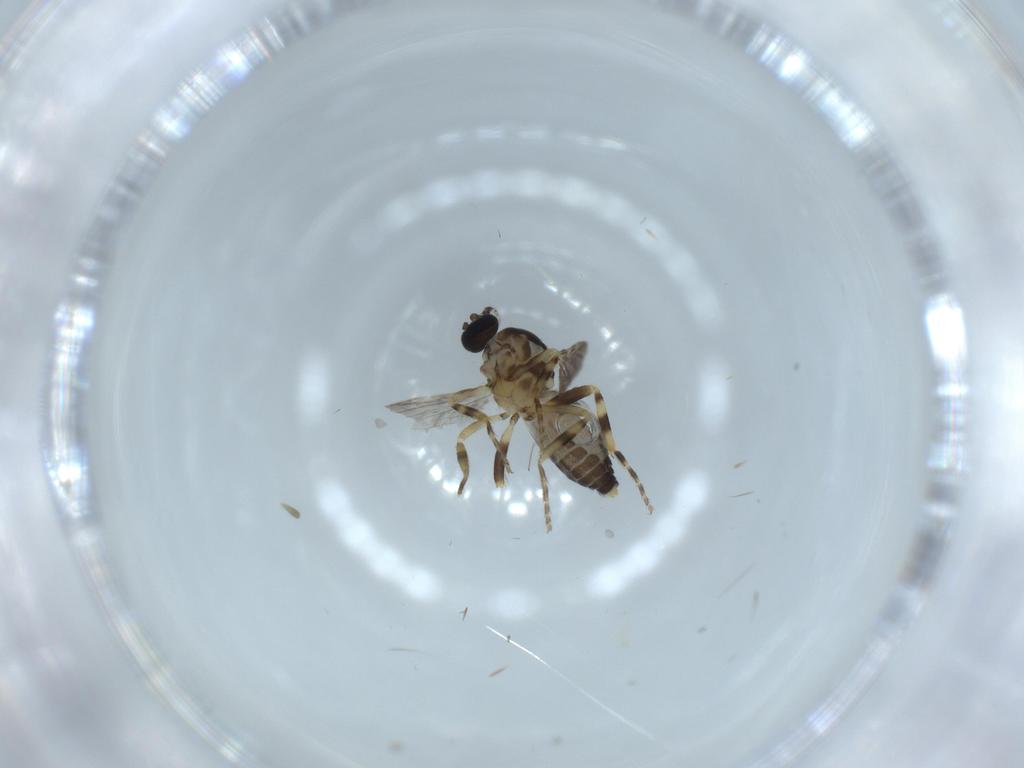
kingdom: Animalia
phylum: Arthropoda
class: Insecta
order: Diptera
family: Ceratopogonidae
